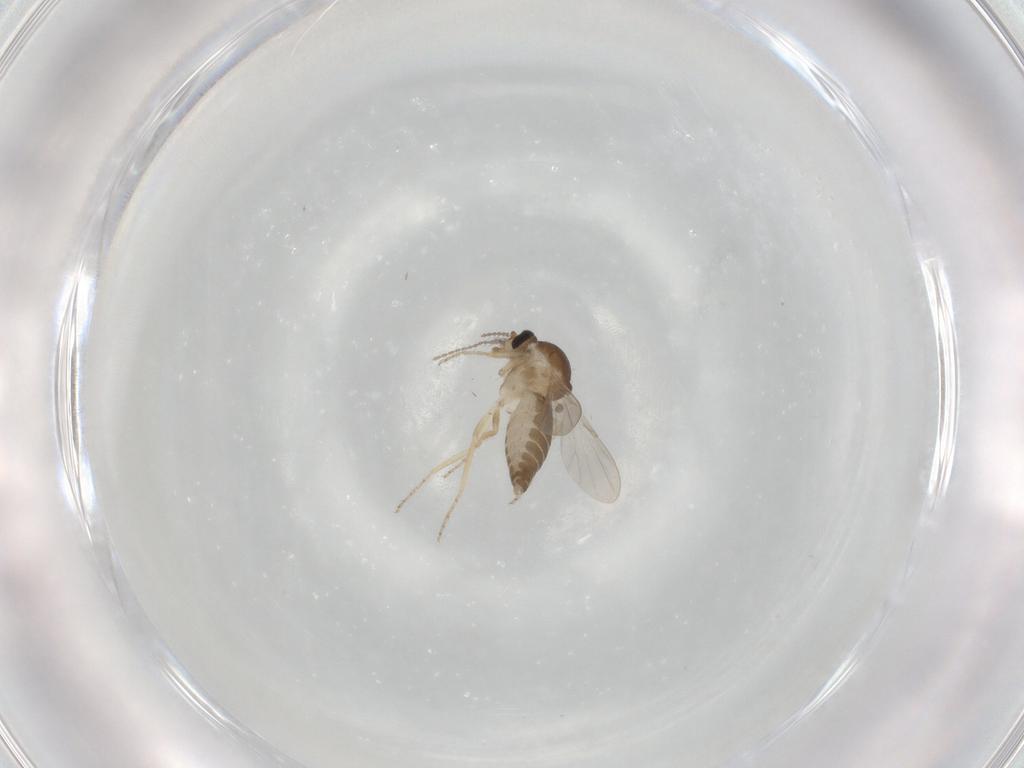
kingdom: Animalia
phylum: Arthropoda
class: Insecta
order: Diptera
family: Ceratopogonidae
